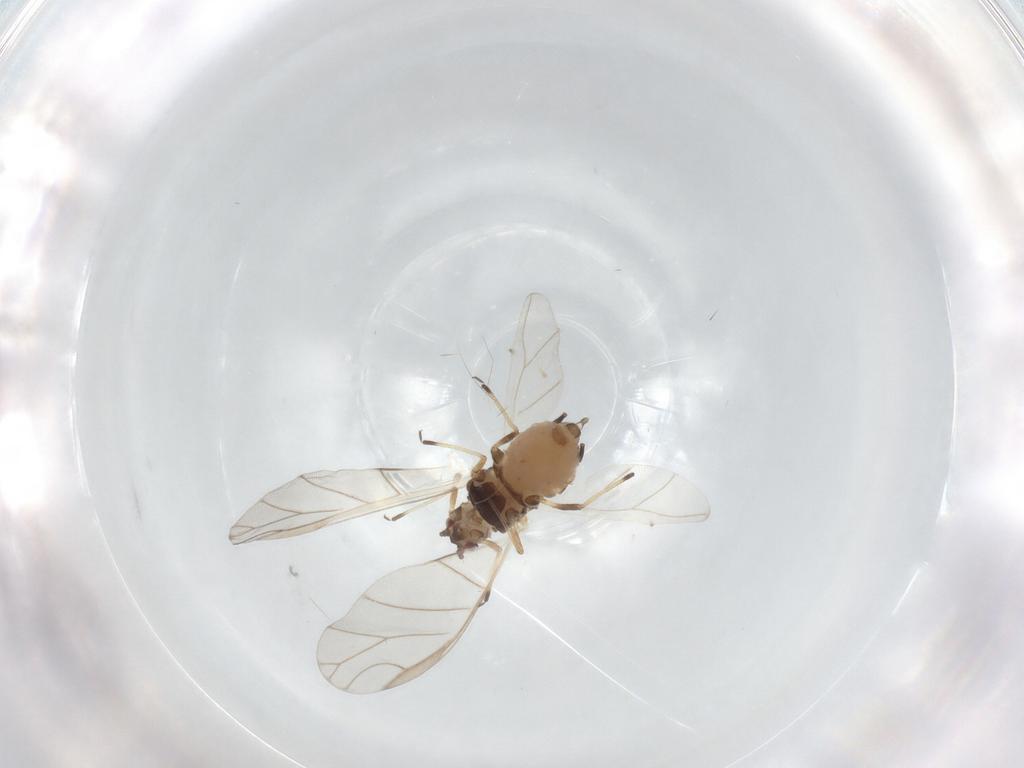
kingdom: Animalia
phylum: Arthropoda
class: Insecta
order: Hemiptera
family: Aphididae
